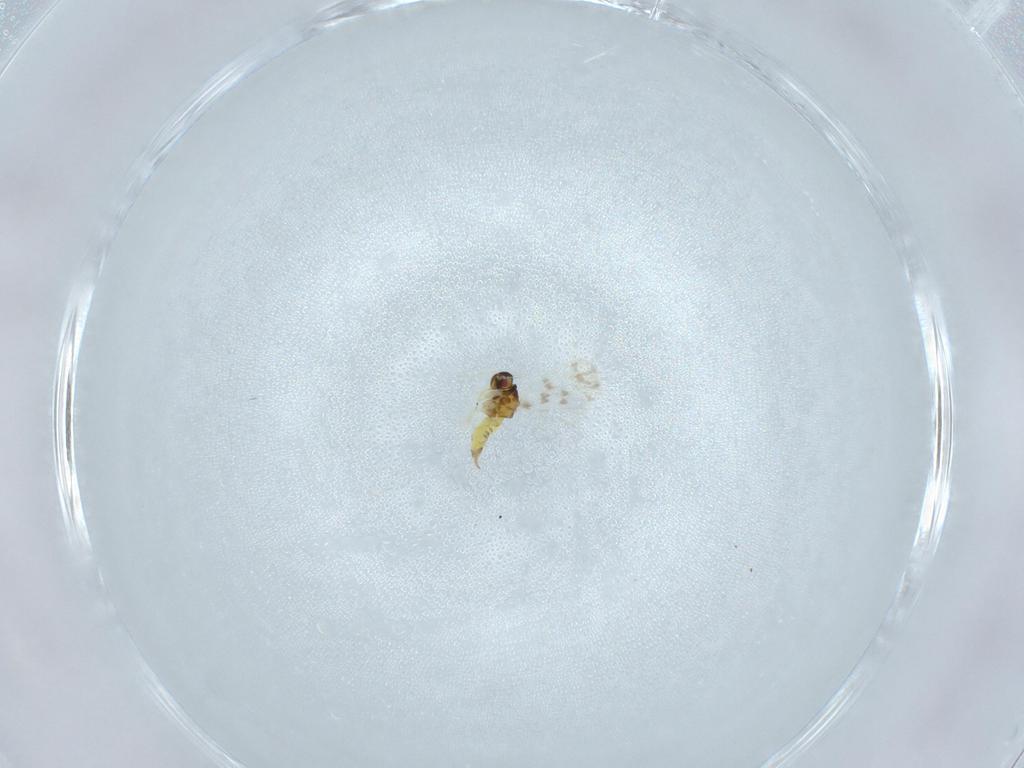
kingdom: Animalia
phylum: Arthropoda
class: Insecta
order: Hemiptera
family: Aleyrodidae
